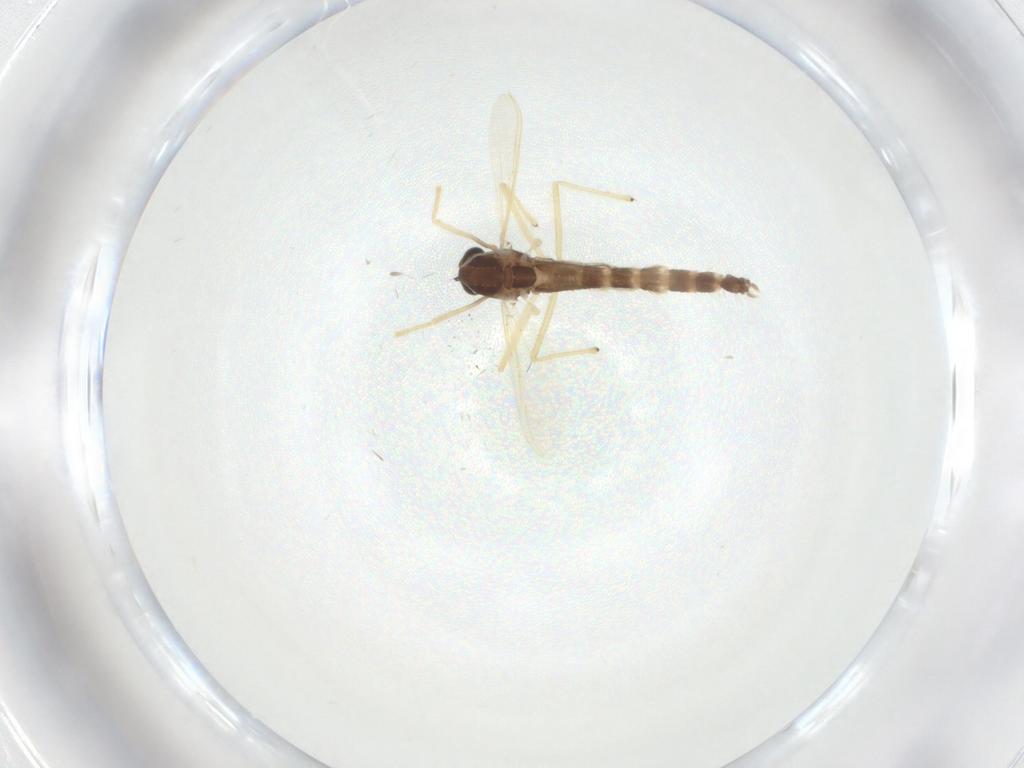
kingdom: Animalia
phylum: Arthropoda
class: Insecta
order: Diptera
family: Chironomidae
